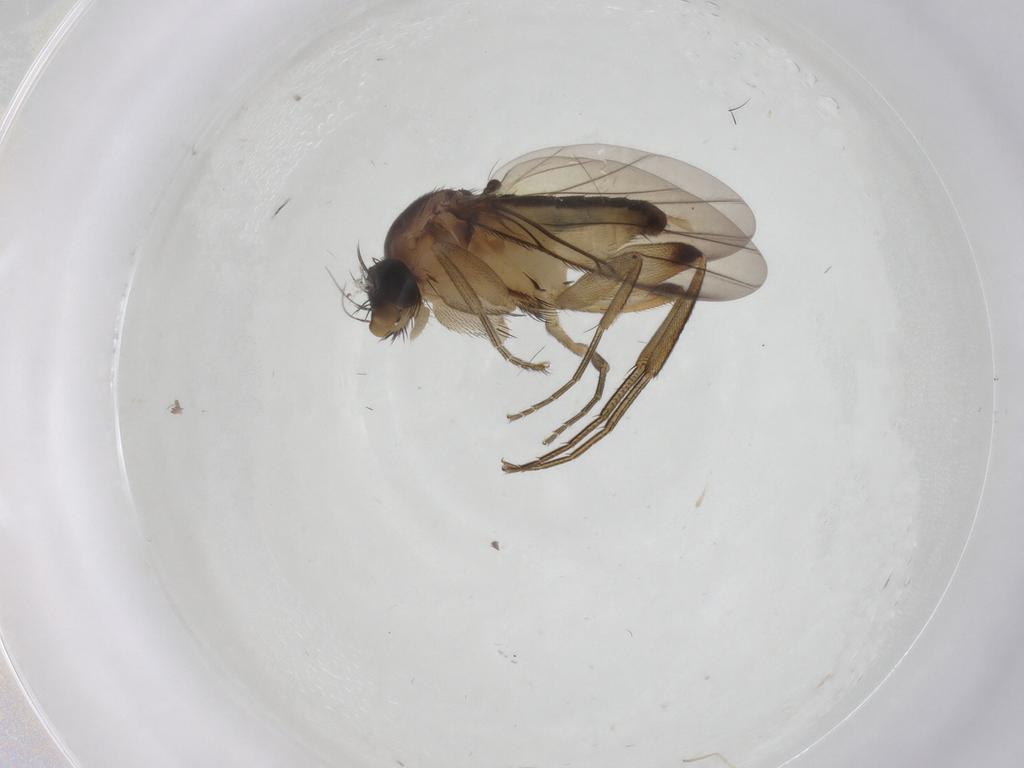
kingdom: Animalia
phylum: Arthropoda
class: Insecta
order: Diptera
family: Phoridae
